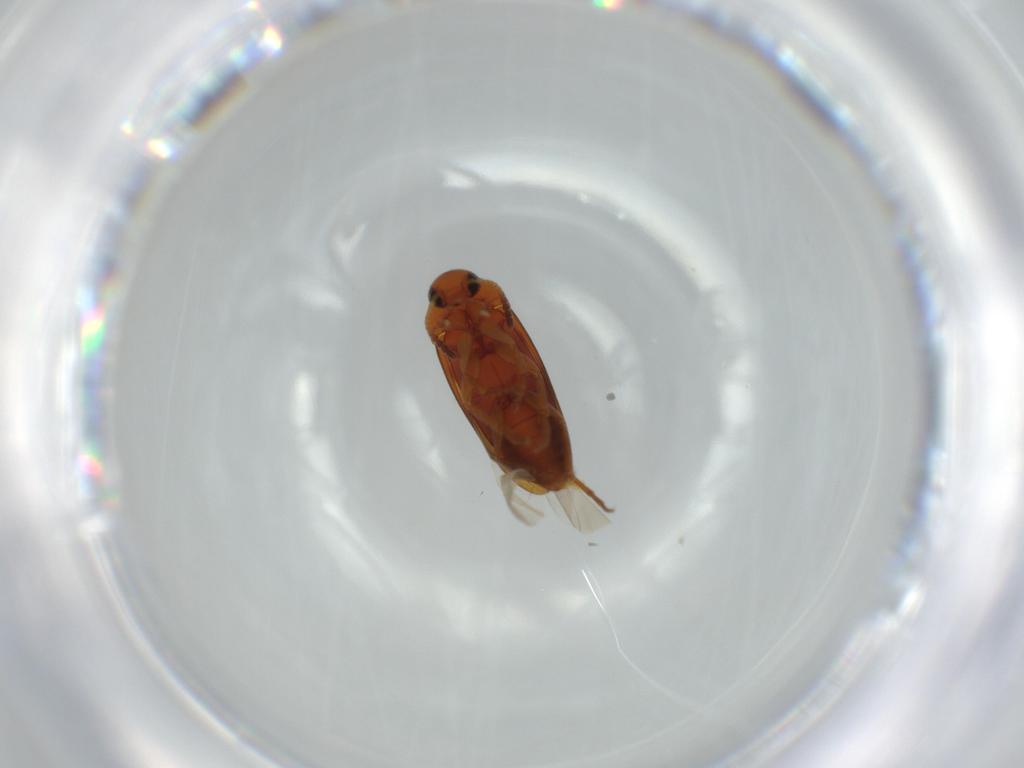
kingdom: Animalia
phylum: Arthropoda
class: Insecta
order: Coleoptera
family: Scraptiidae
